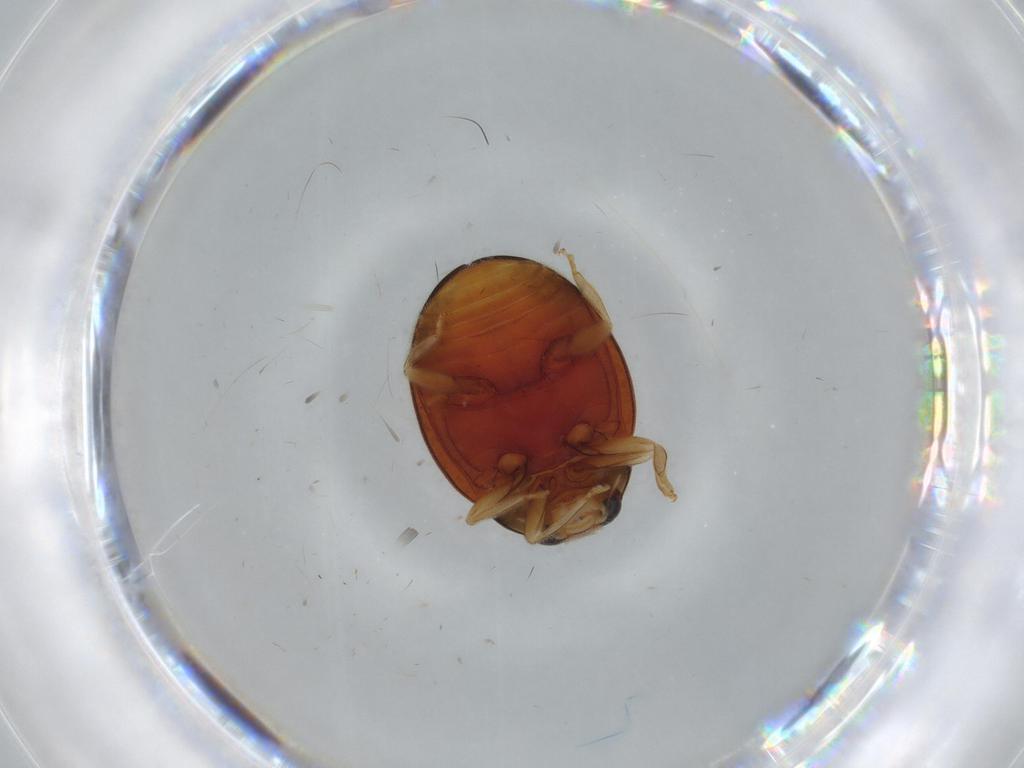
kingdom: Animalia
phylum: Arthropoda
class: Insecta
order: Coleoptera
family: Coccinellidae
